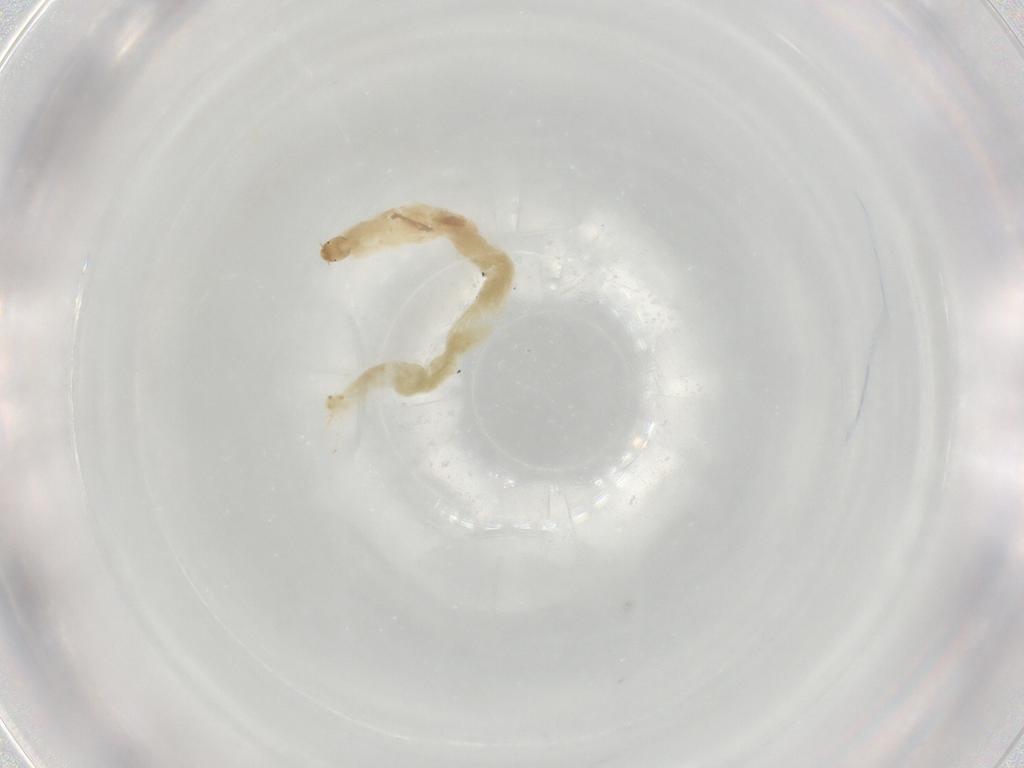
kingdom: Animalia
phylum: Arthropoda
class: Insecta
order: Diptera
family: Chironomidae
